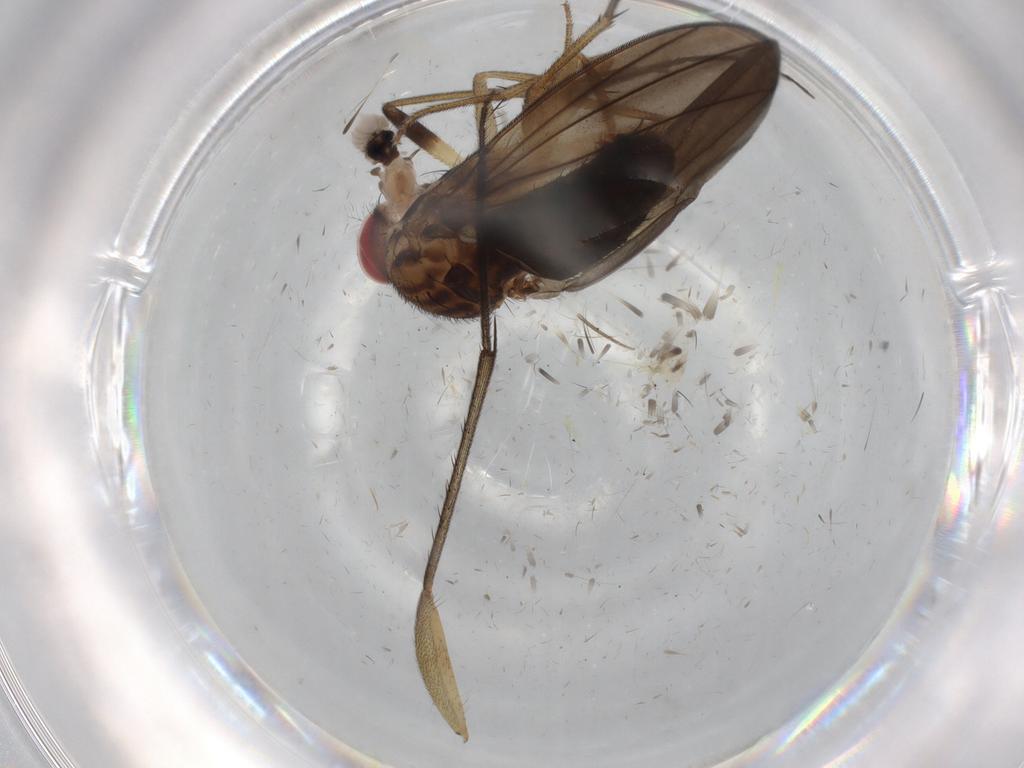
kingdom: Animalia
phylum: Arthropoda
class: Insecta
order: Diptera
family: Drosophilidae
